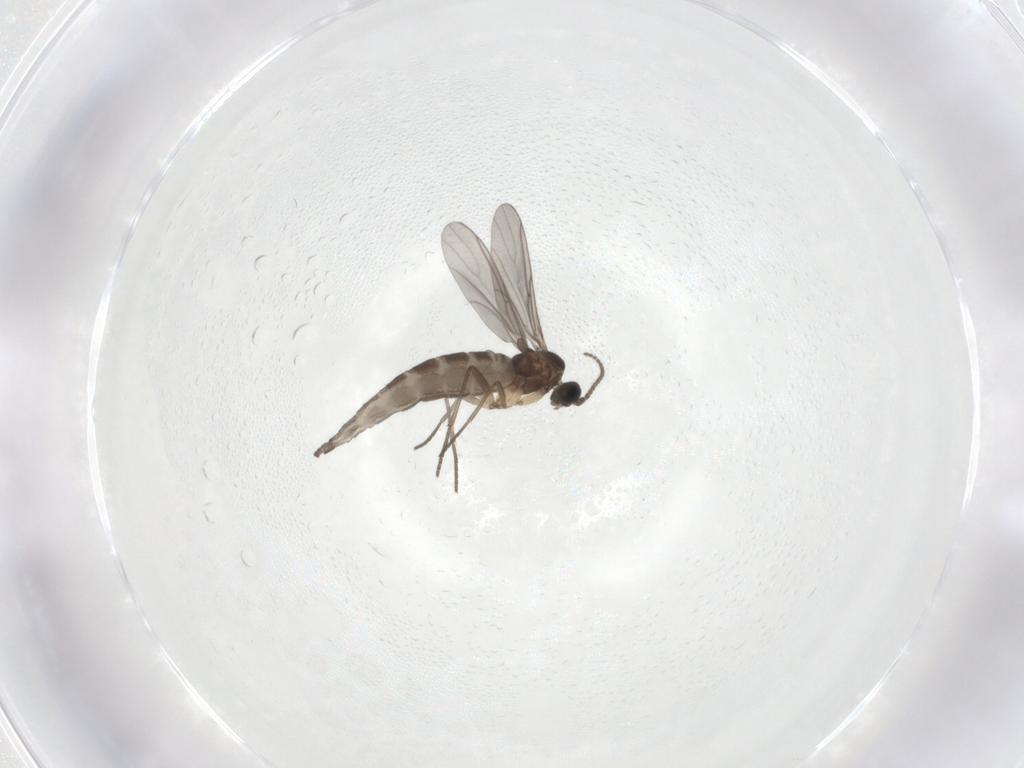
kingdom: Animalia
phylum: Arthropoda
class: Insecta
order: Diptera
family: Sciaridae
